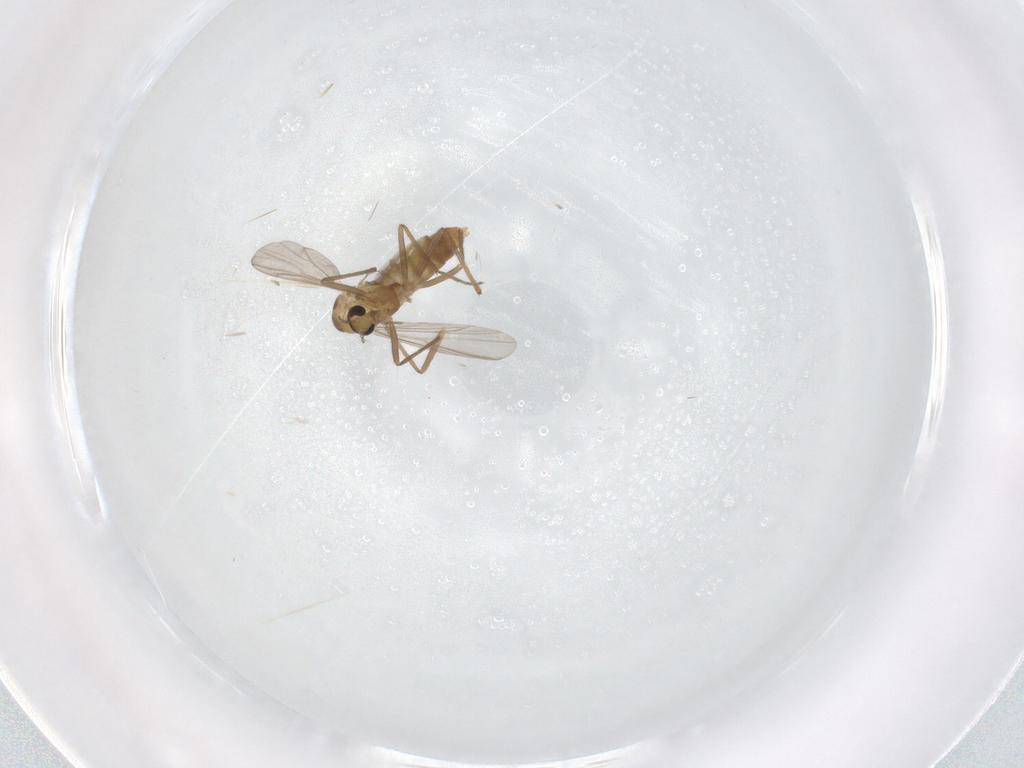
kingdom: Animalia
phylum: Arthropoda
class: Insecta
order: Diptera
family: Chironomidae
